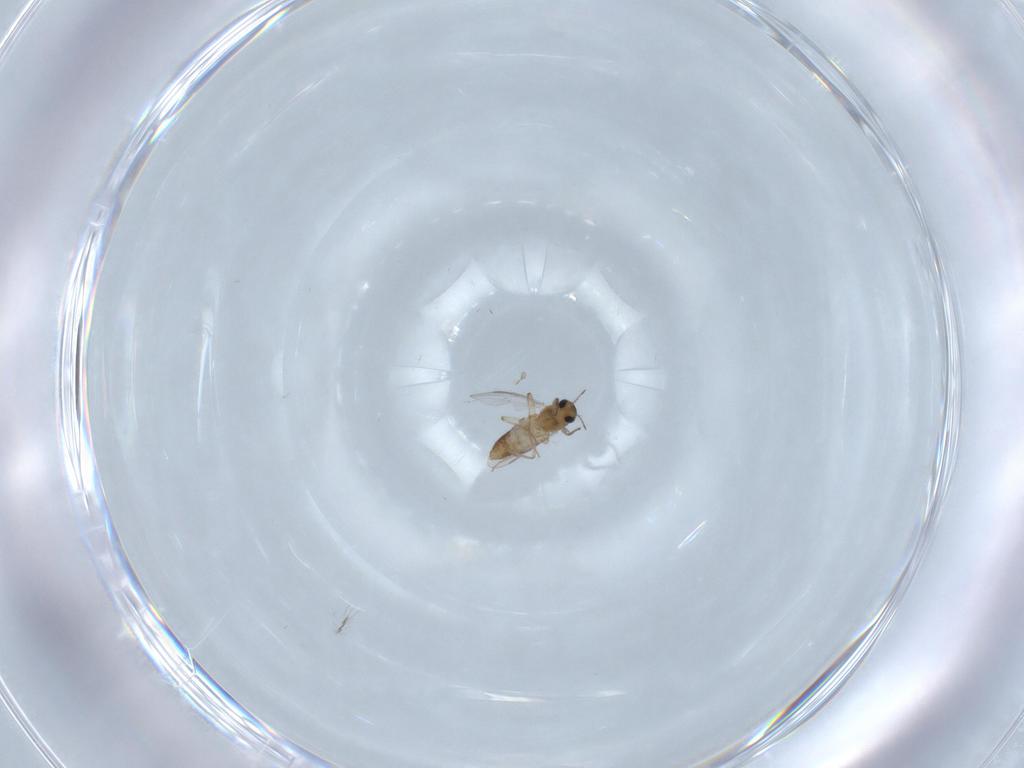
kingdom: Animalia
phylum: Arthropoda
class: Insecta
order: Diptera
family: Chironomidae
